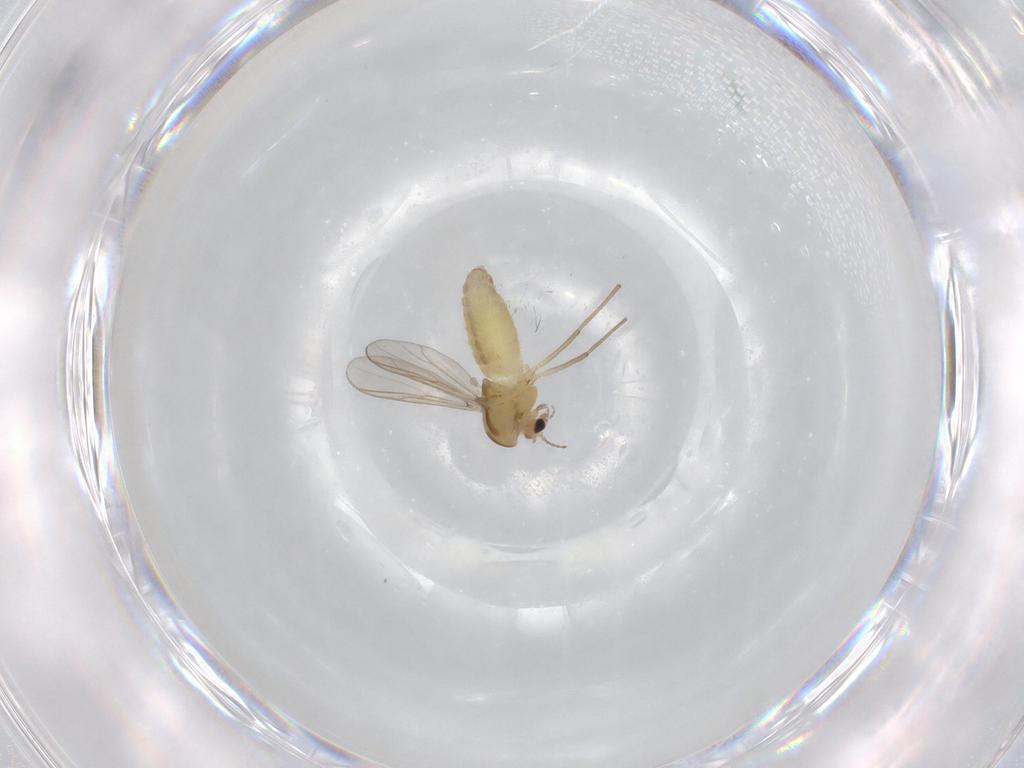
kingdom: Animalia
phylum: Arthropoda
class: Insecta
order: Diptera
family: Chironomidae
